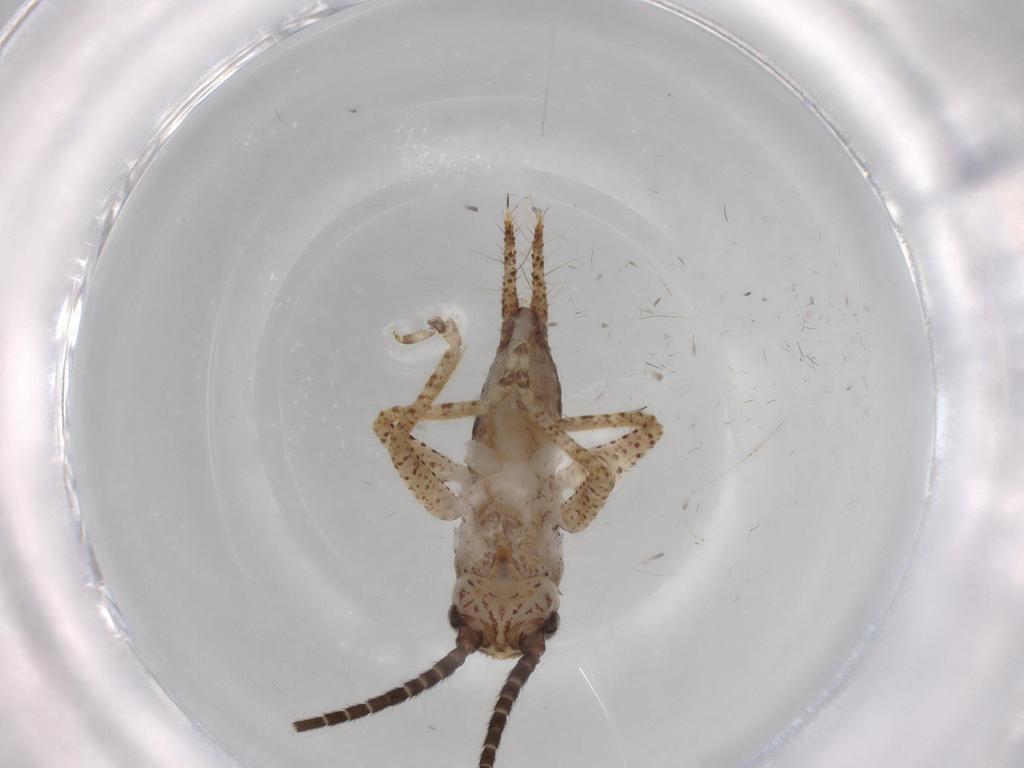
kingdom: Animalia
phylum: Arthropoda
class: Insecta
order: Orthoptera
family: Gryllidae
